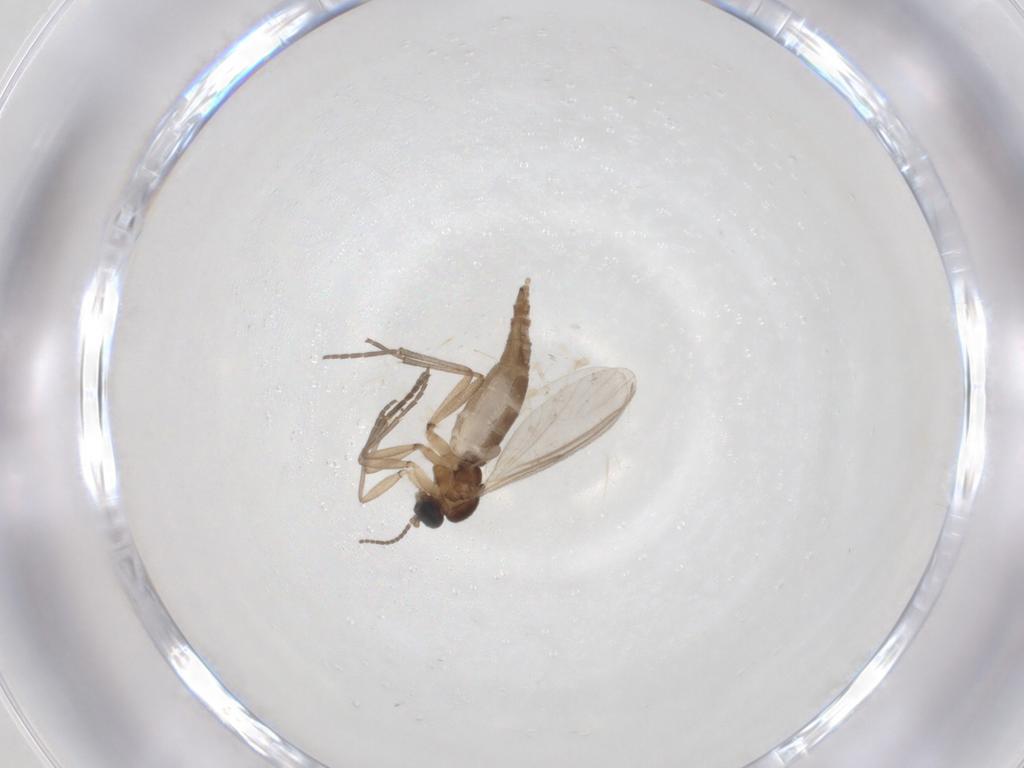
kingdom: Animalia
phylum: Arthropoda
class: Insecta
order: Diptera
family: Sciaridae
